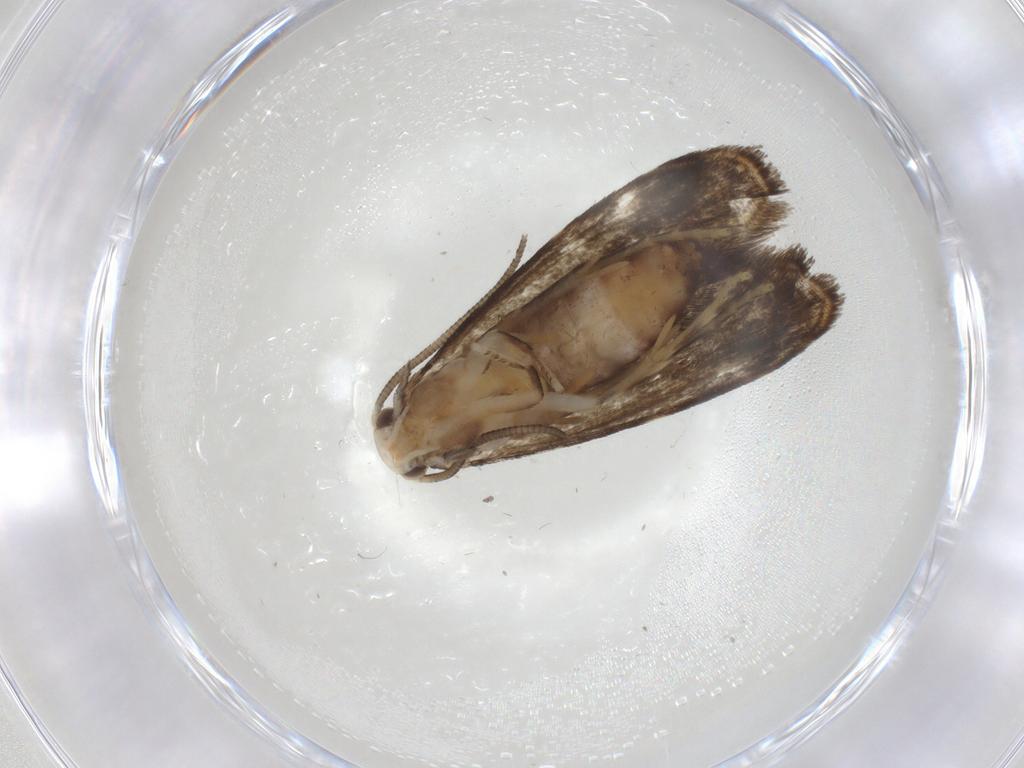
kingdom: Animalia
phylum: Arthropoda
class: Insecta
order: Lepidoptera
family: Dryadaulidae
